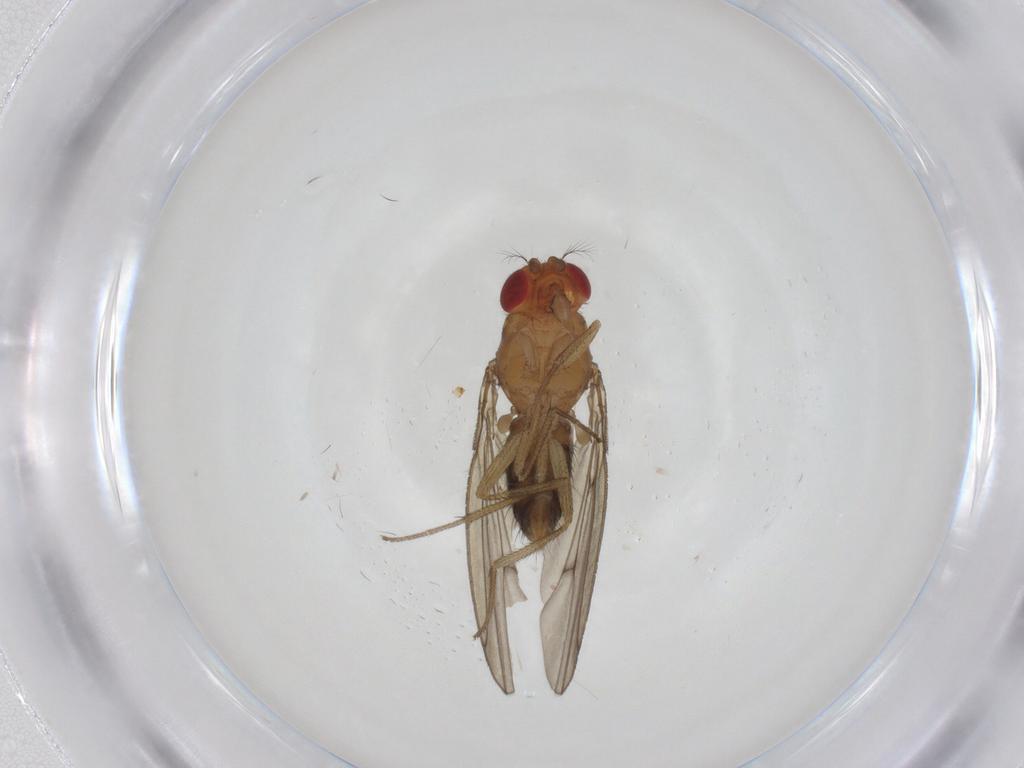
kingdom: Animalia
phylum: Arthropoda
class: Insecta
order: Diptera
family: Drosophilidae
